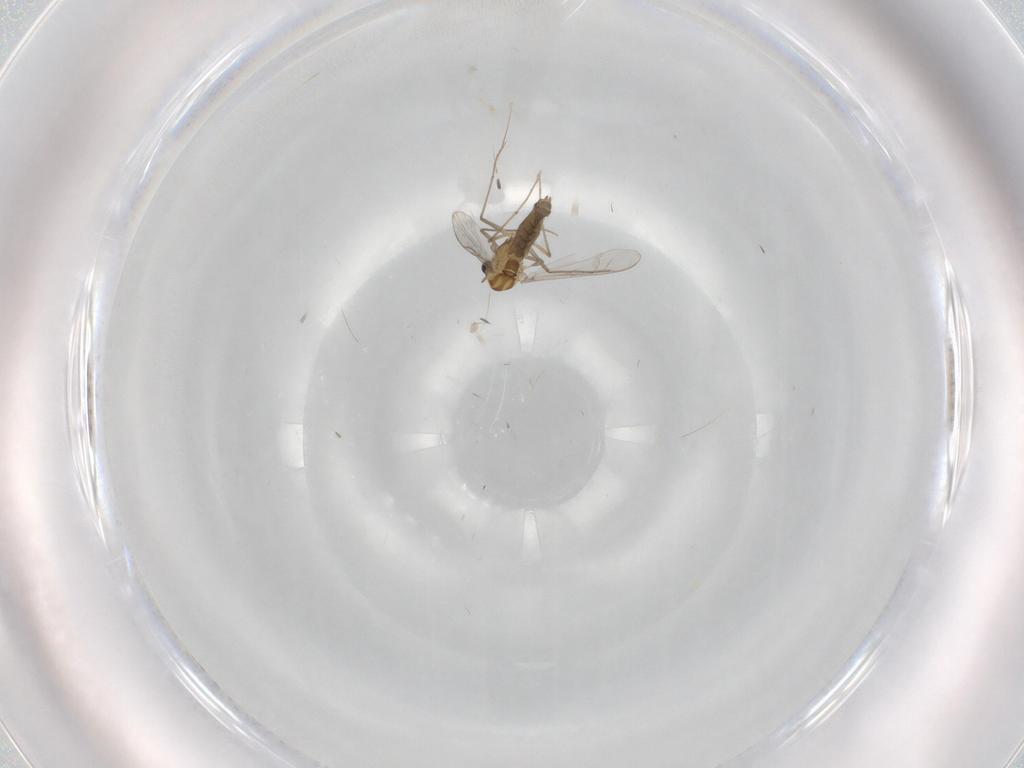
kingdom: Animalia
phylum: Arthropoda
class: Insecta
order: Diptera
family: Chironomidae
